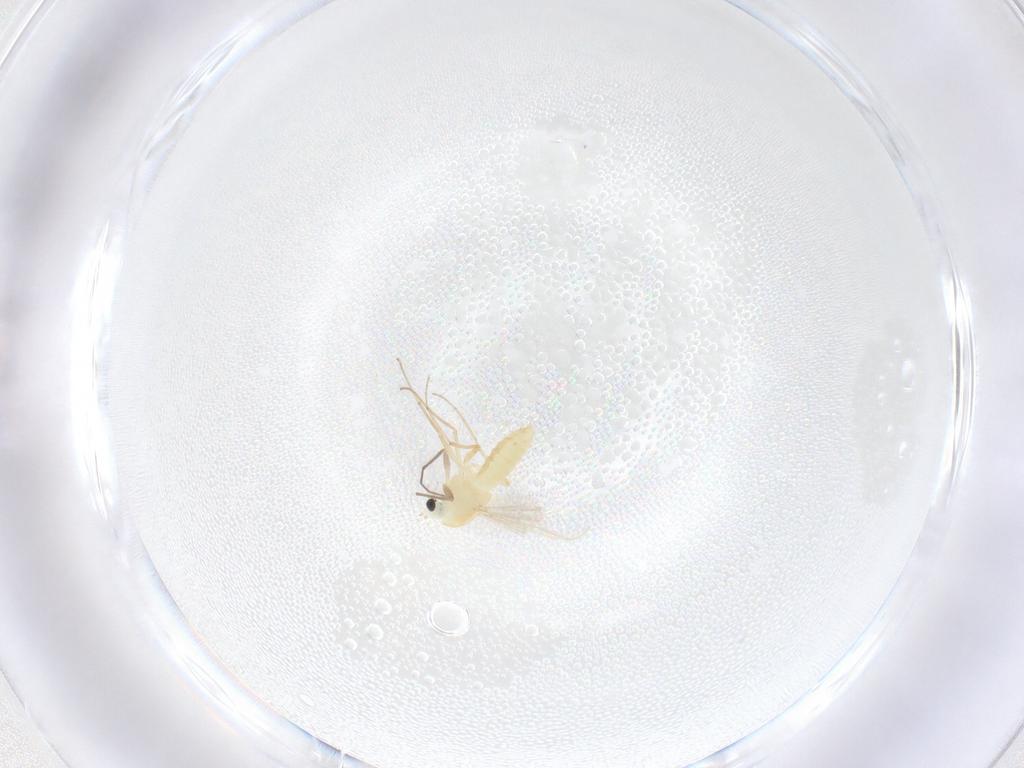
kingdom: Animalia
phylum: Arthropoda
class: Insecta
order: Diptera
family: Chironomidae
